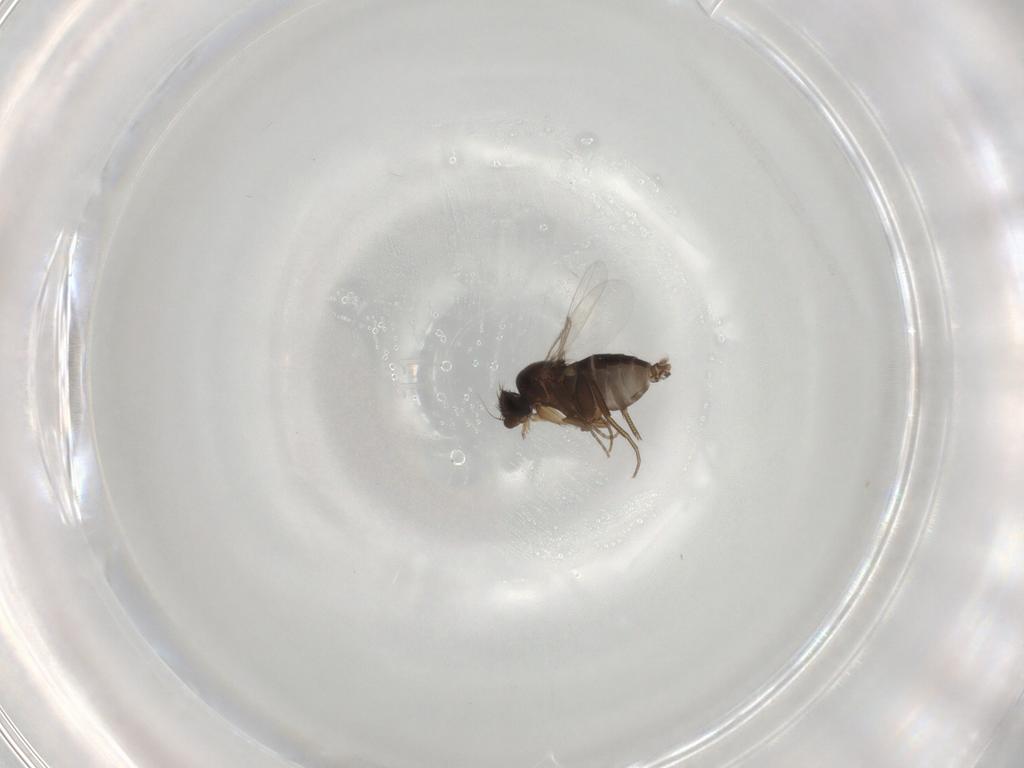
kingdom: Animalia
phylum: Arthropoda
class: Insecta
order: Diptera
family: Phoridae
